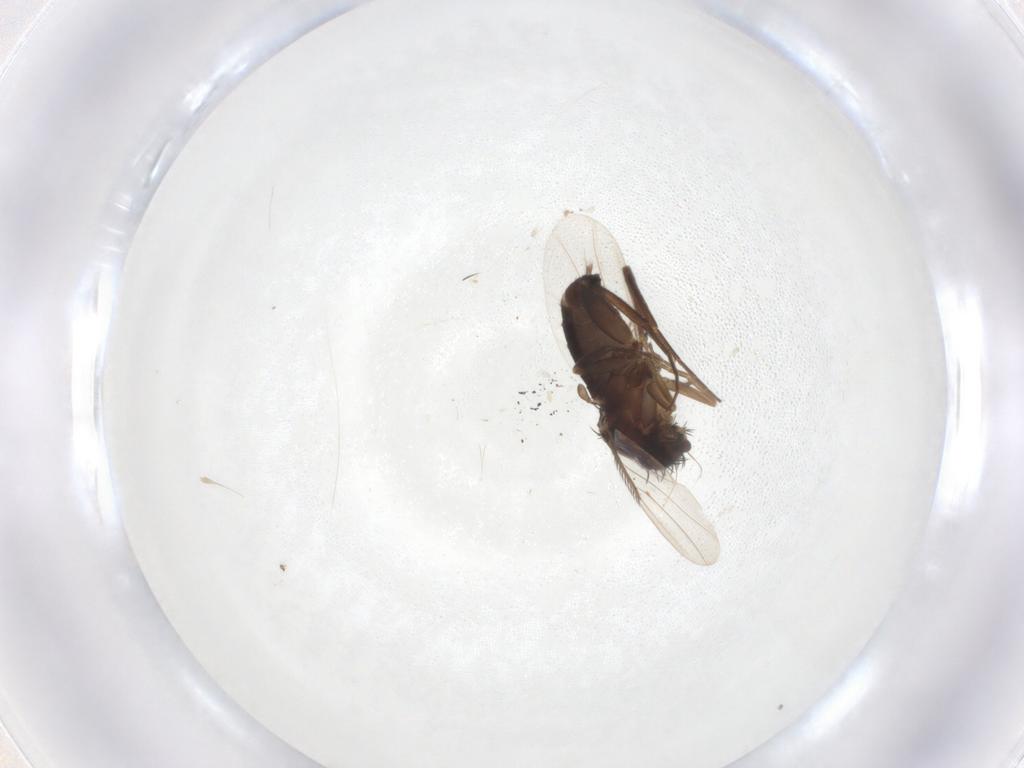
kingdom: Animalia
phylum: Arthropoda
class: Insecta
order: Diptera
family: Phoridae
